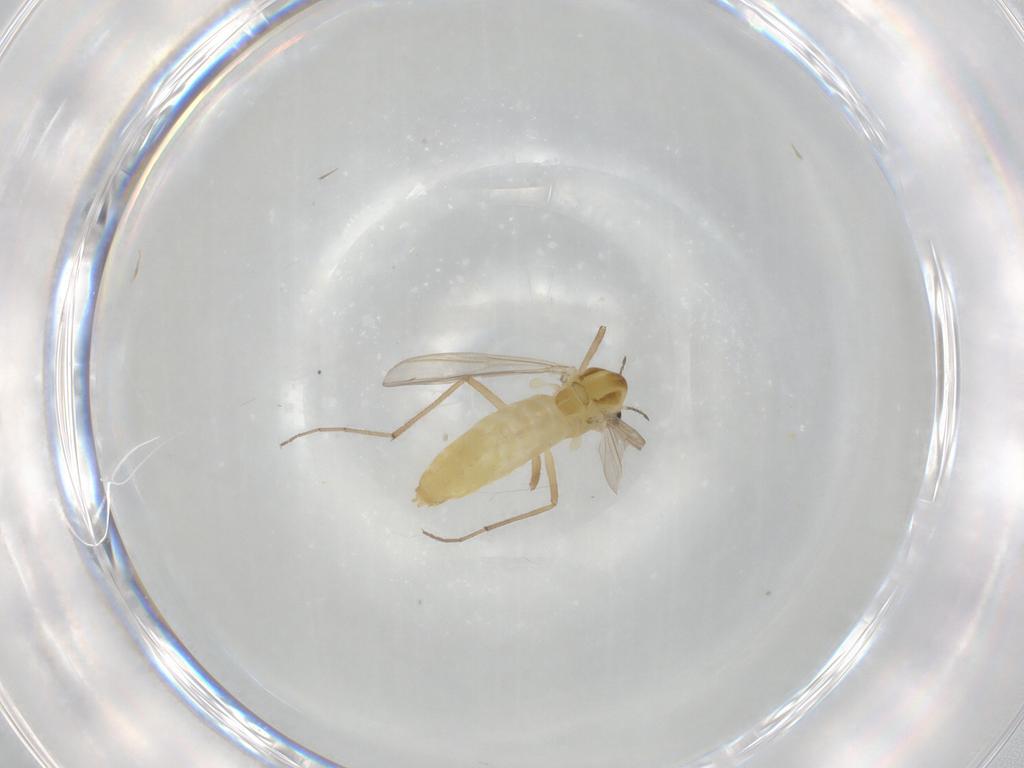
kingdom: Animalia
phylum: Arthropoda
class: Insecta
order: Diptera
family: Chironomidae
